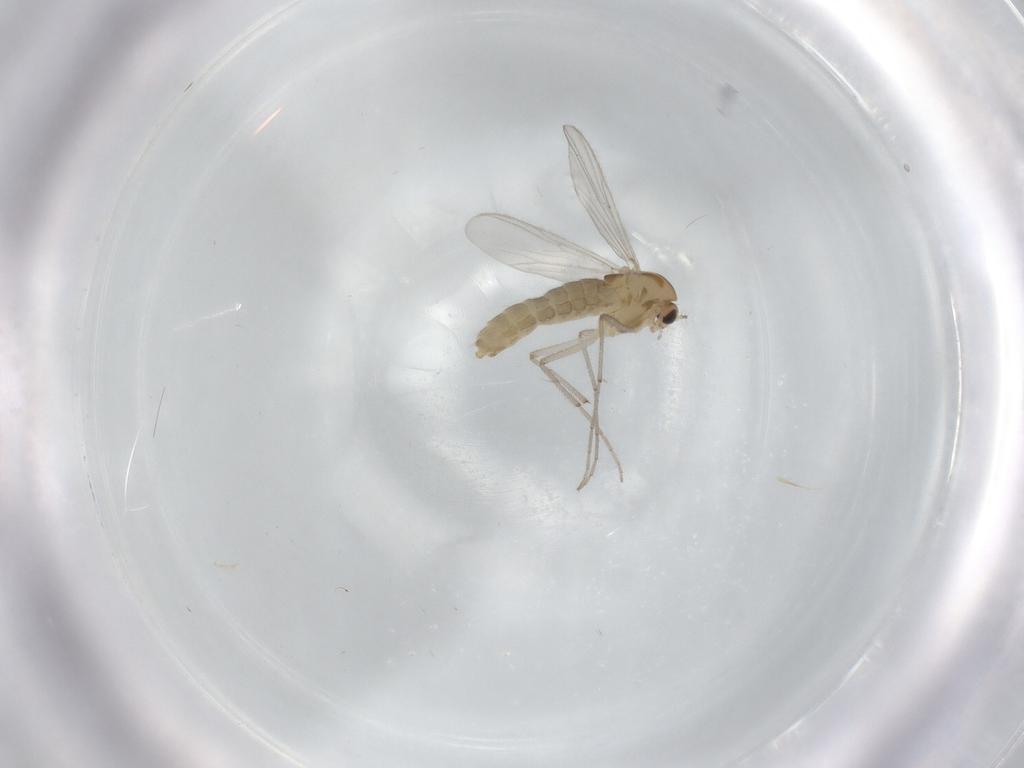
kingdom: Animalia
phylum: Arthropoda
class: Insecta
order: Diptera
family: Chironomidae
